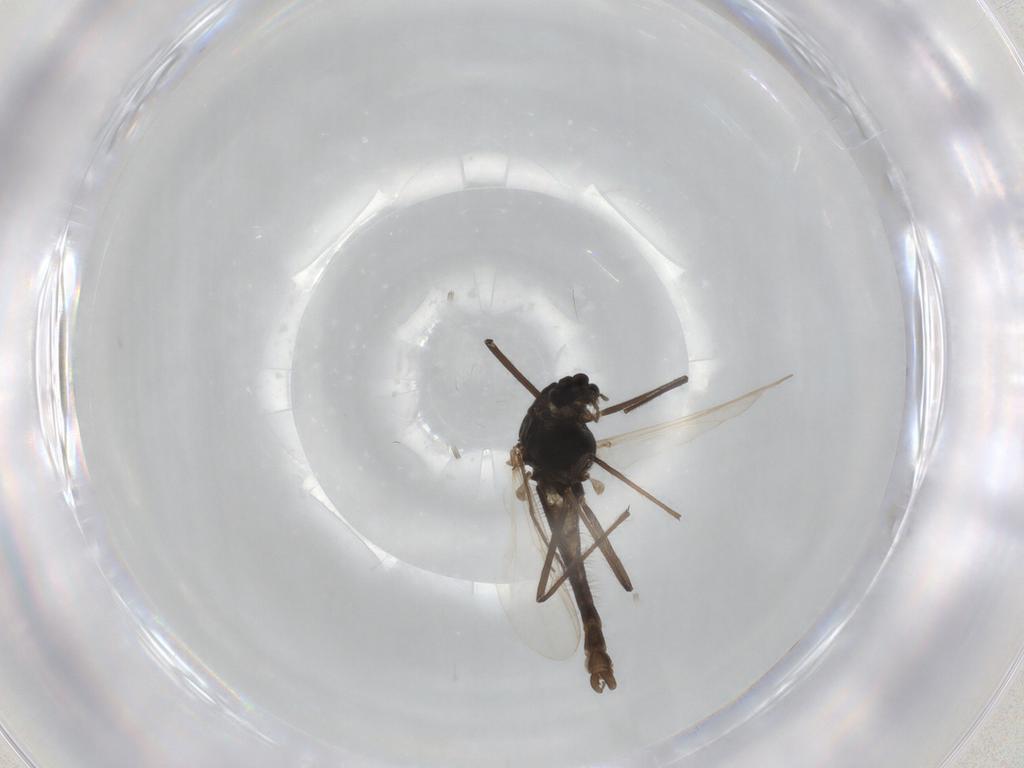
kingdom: Animalia
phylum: Arthropoda
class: Insecta
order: Diptera
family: Chironomidae
